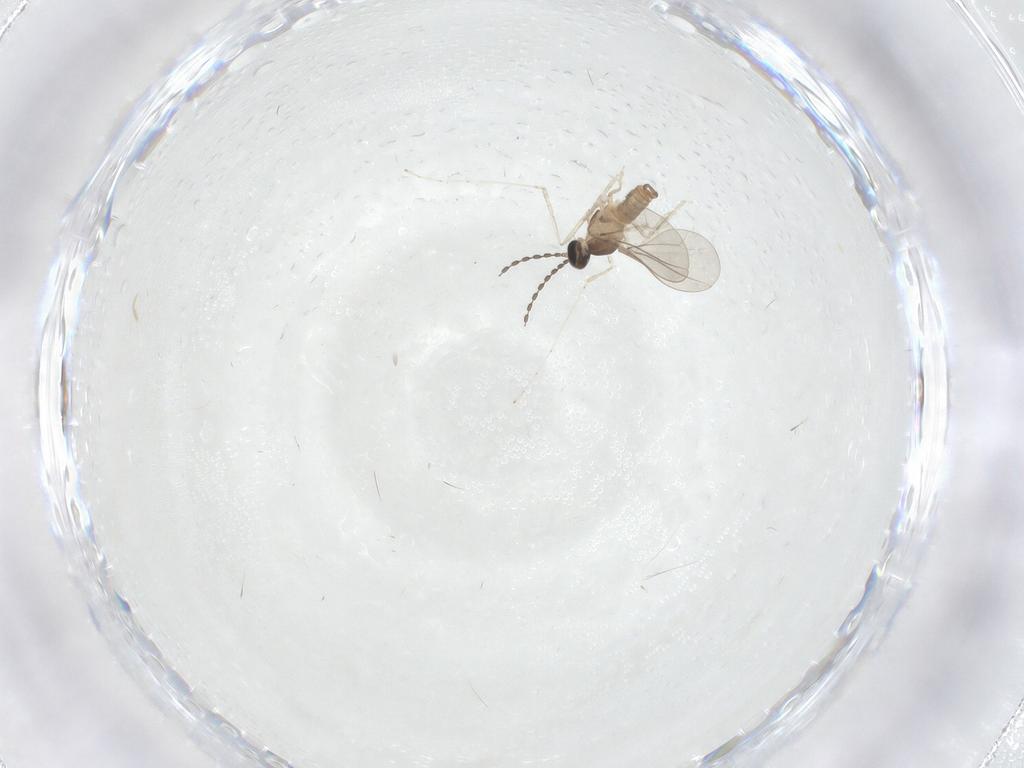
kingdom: Animalia
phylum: Arthropoda
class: Insecta
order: Diptera
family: Cecidomyiidae
